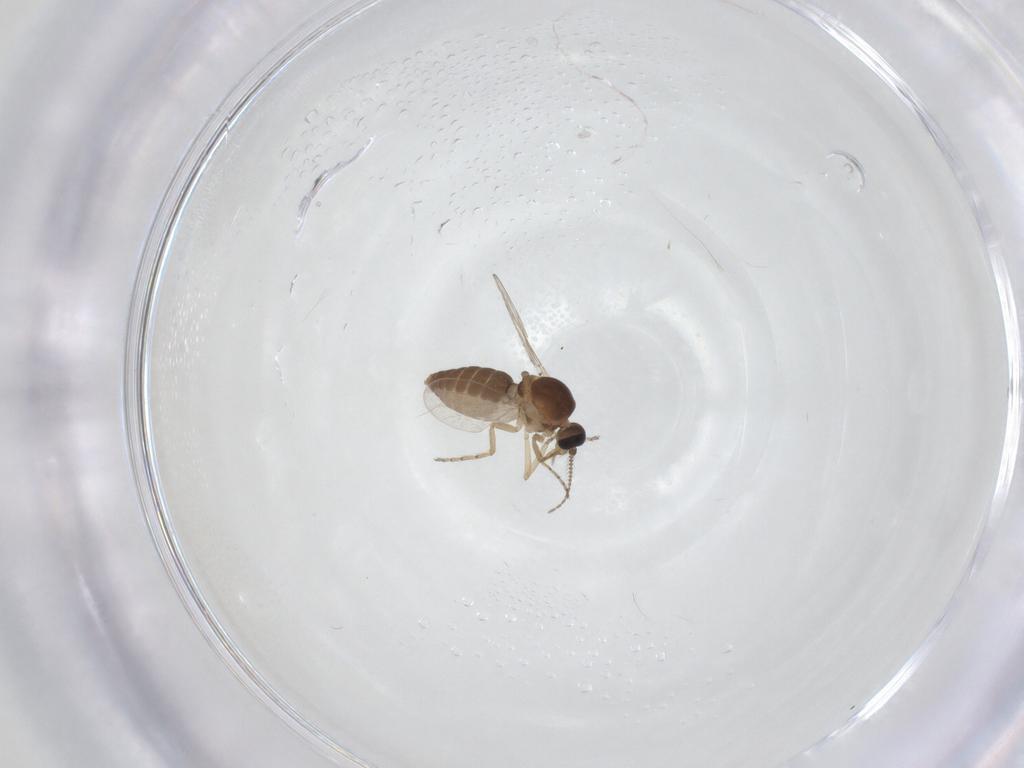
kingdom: Animalia
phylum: Arthropoda
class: Insecta
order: Diptera
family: Ceratopogonidae
